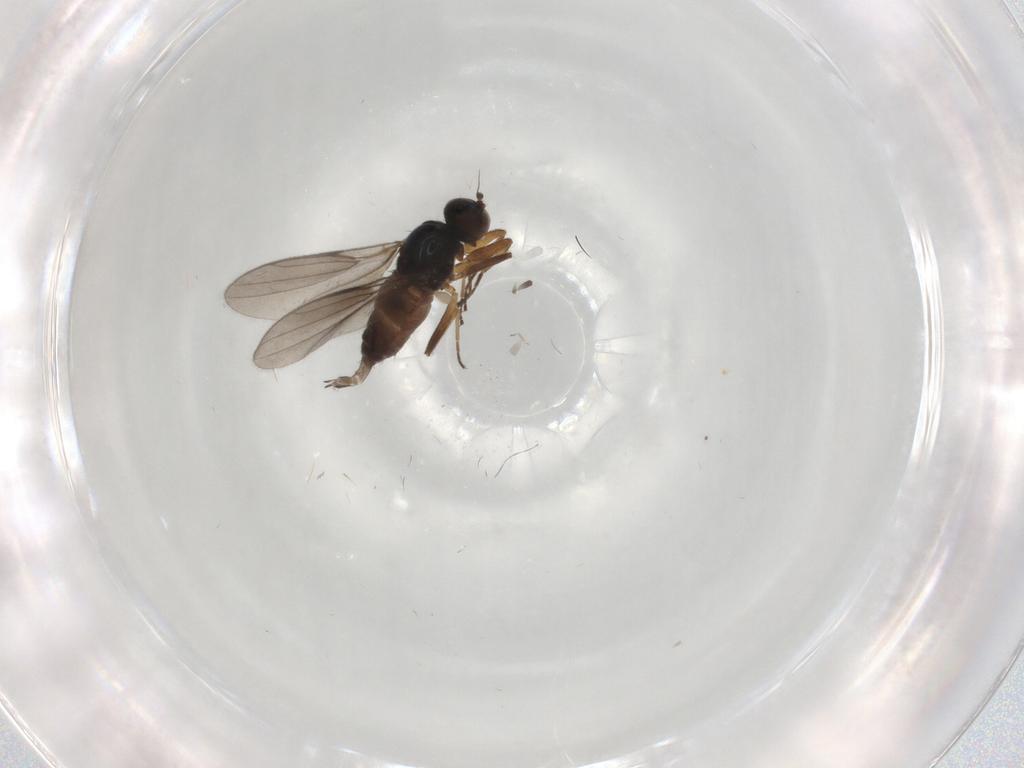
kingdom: Animalia
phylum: Arthropoda
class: Insecta
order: Diptera
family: Hybotidae
